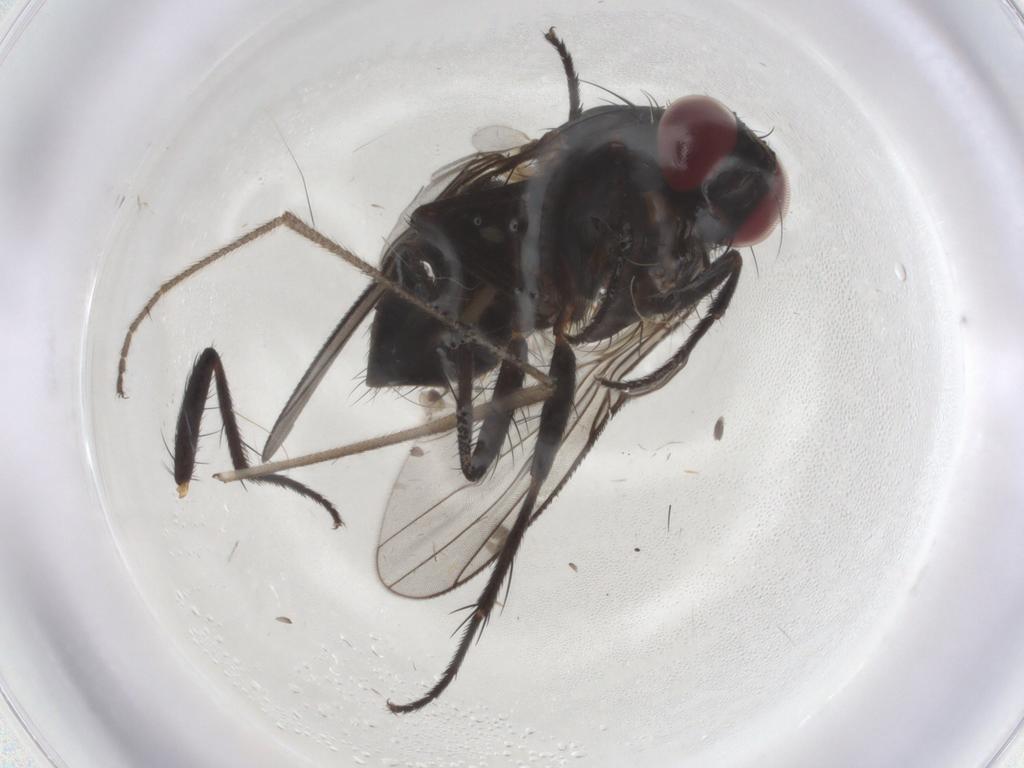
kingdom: Animalia
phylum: Arthropoda
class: Insecta
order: Diptera
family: Muscidae
